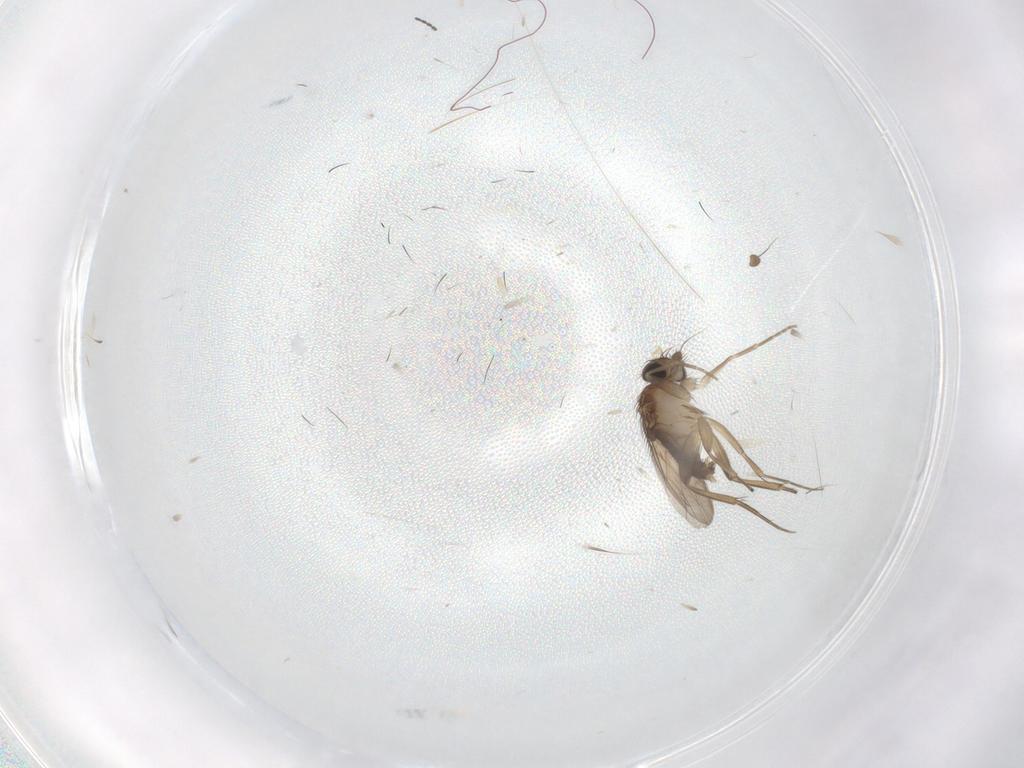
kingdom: Animalia
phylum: Arthropoda
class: Insecta
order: Diptera
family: Phoridae
